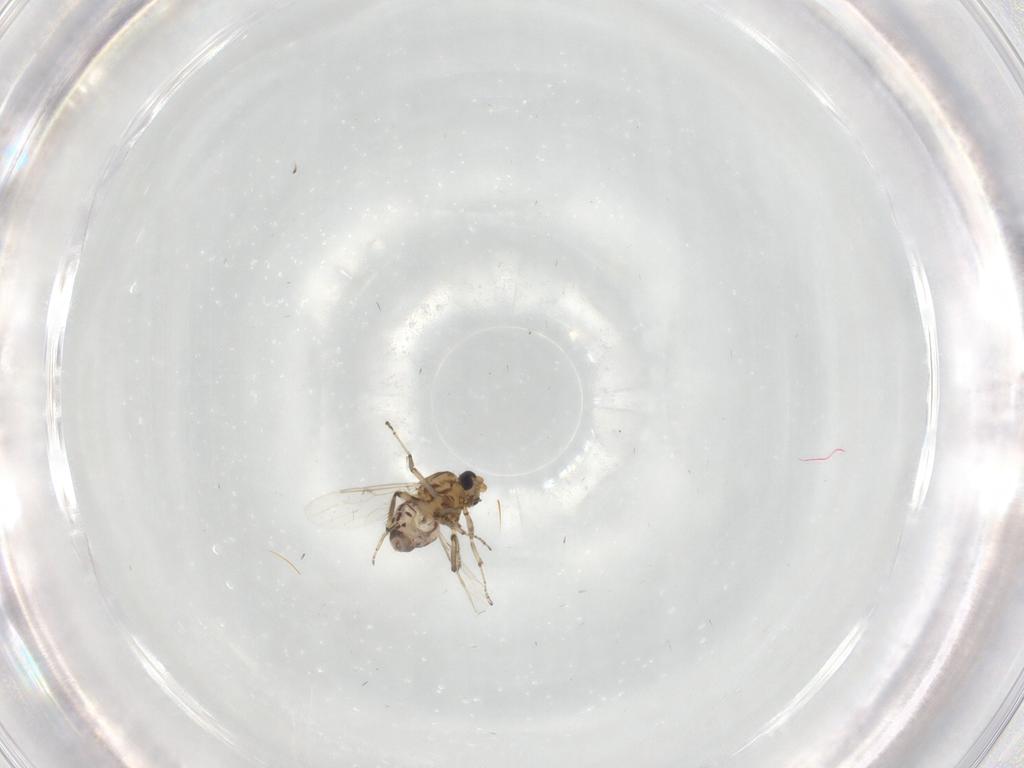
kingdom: Animalia
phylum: Arthropoda
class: Insecta
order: Diptera
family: Ceratopogonidae
